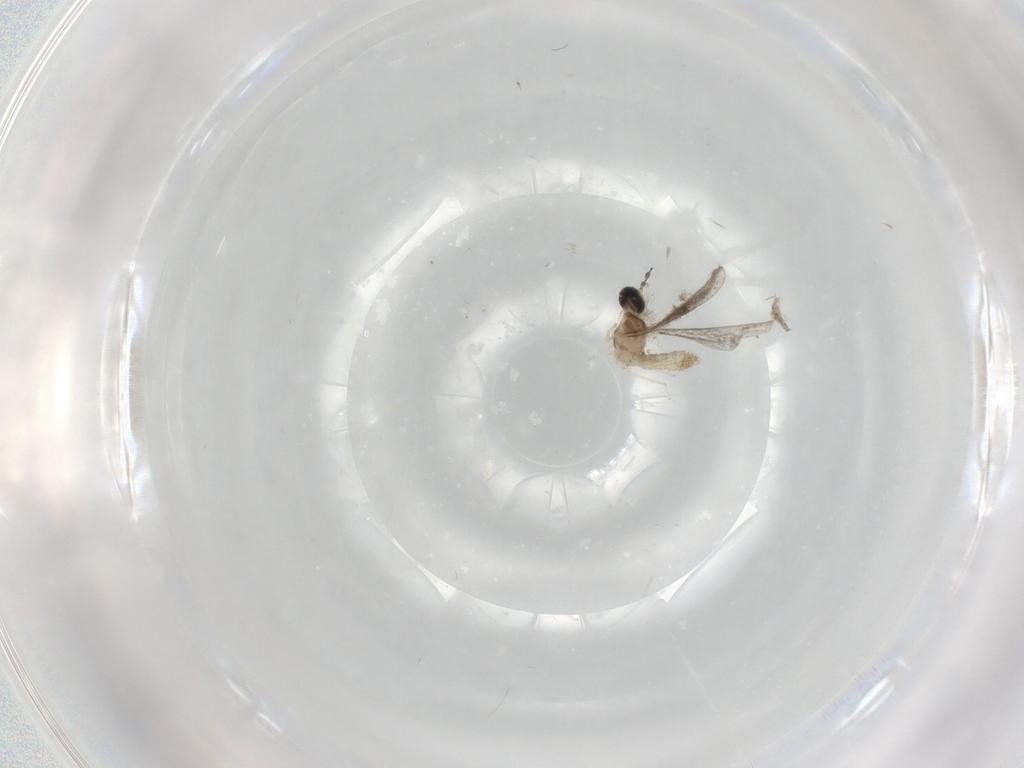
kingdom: Animalia
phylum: Arthropoda
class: Insecta
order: Diptera
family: Cecidomyiidae
